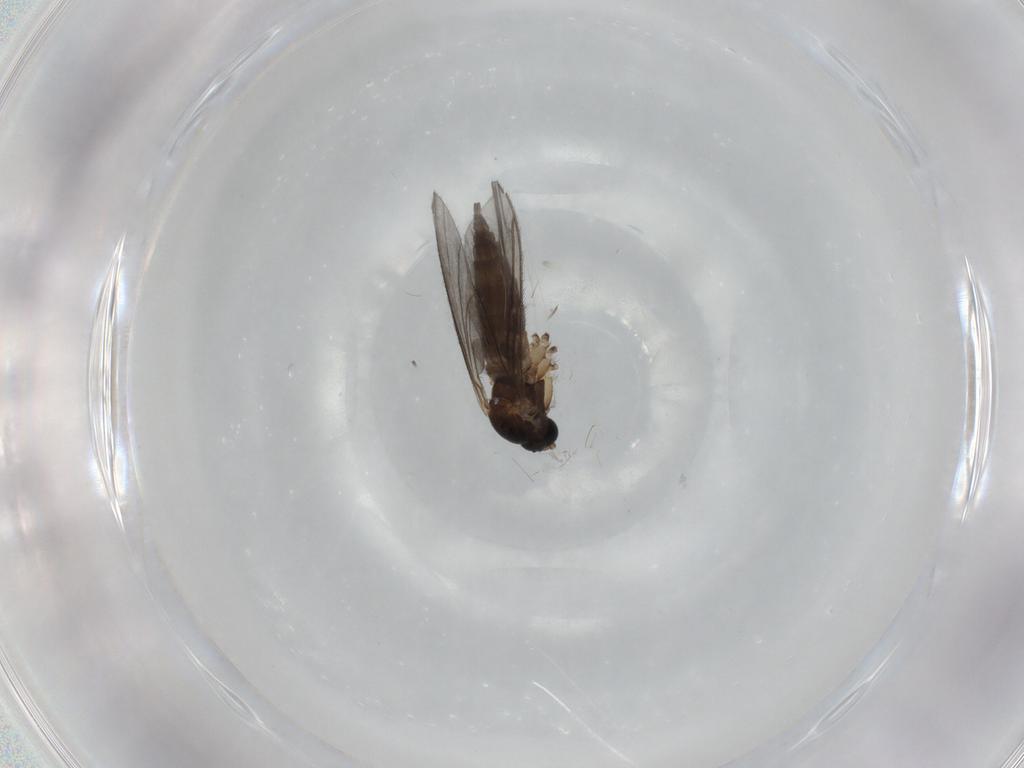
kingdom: Animalia
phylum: Arthropoda
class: Insecta
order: Diptera
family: Sciaridae
